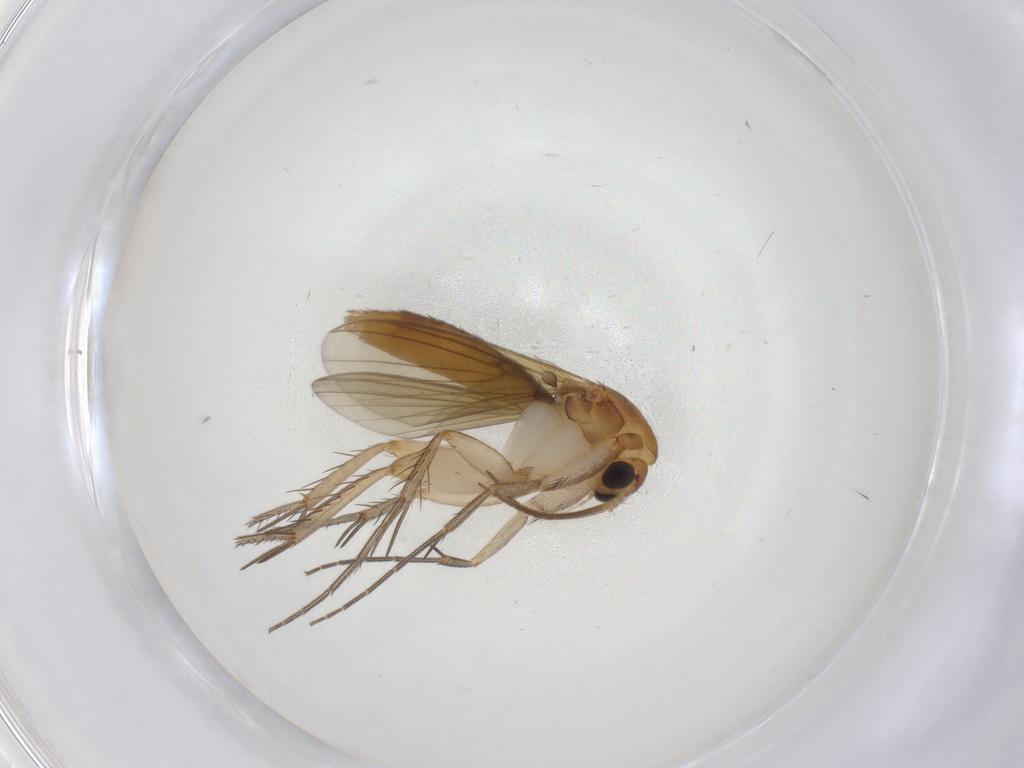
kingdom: Animalia
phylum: Arthropoda
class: Insecta
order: Diptera
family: Mycetophilidae
